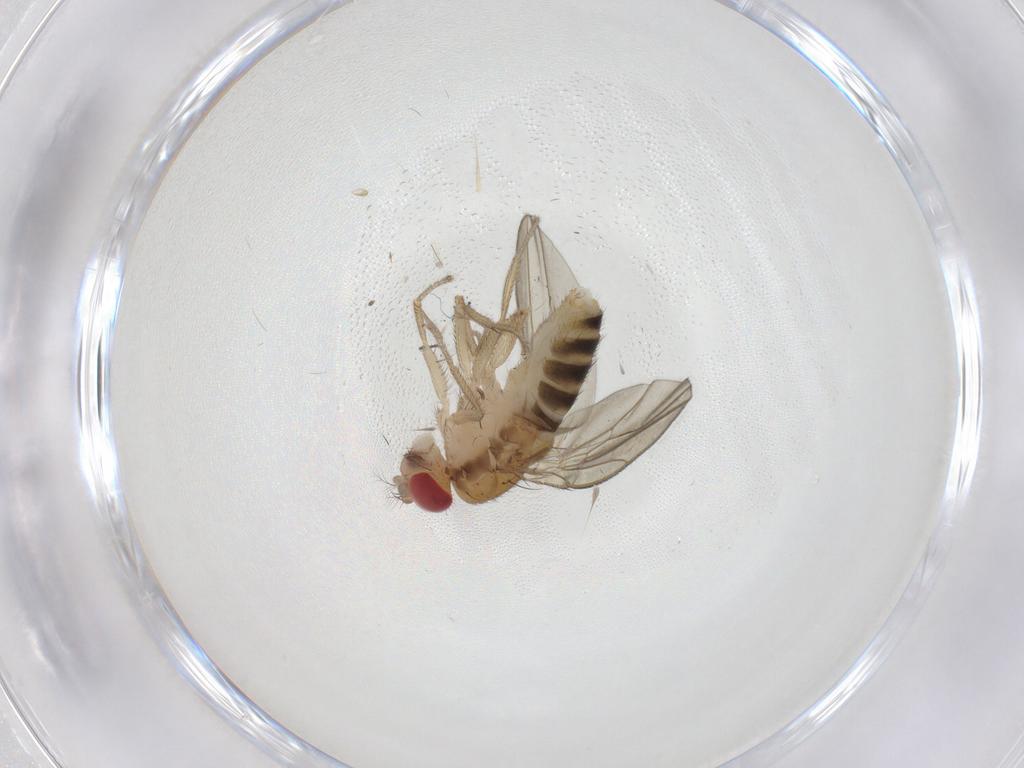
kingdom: Animalia
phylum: Arthropoda
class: Insecta
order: Diptera
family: Drosophilidae
